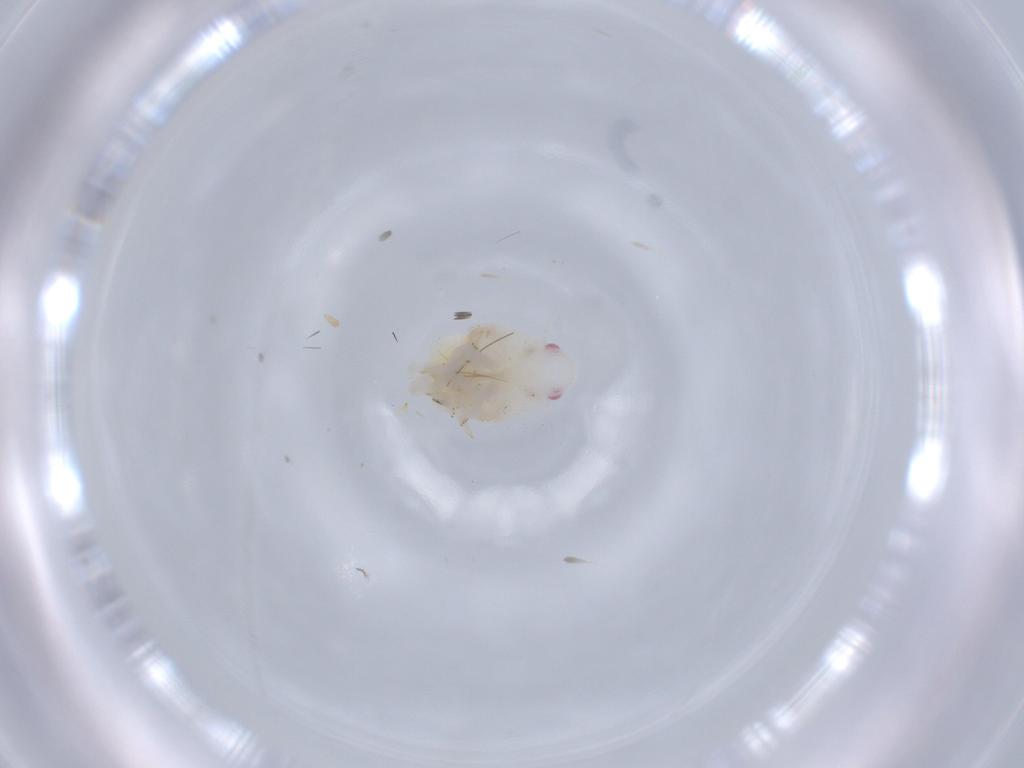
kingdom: Animalia
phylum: Arthropoda
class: Insecta
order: Hemiptera
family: Flatidae
